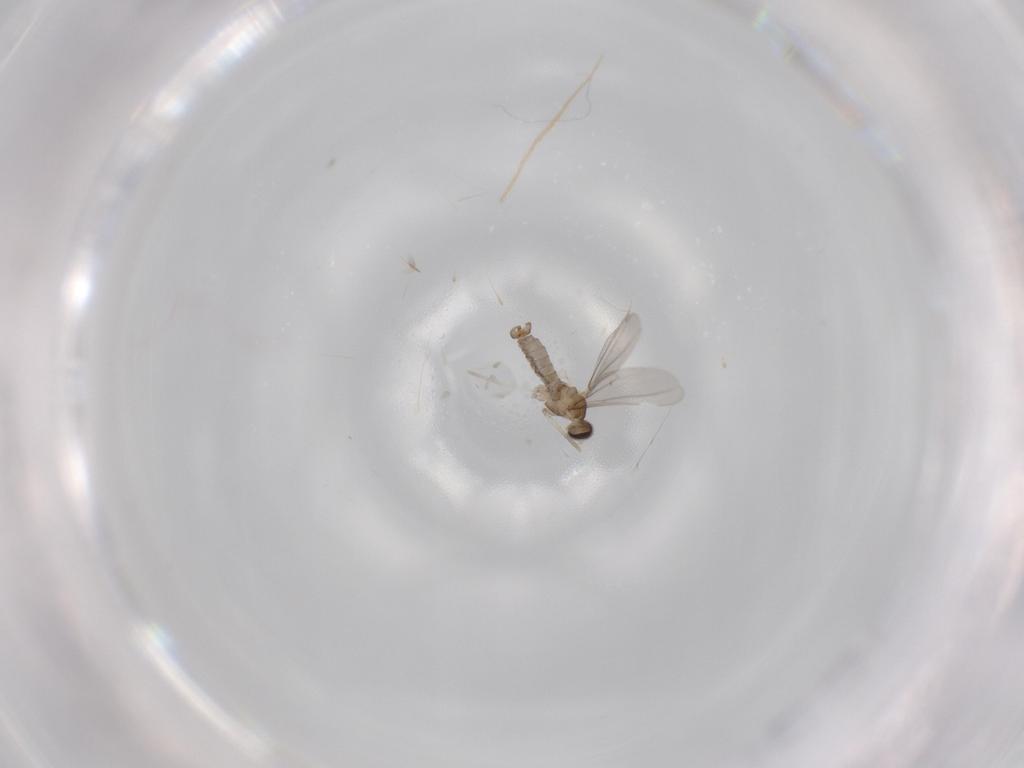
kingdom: Animalia
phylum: Arthropoda
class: Insecta
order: Diptera
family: Cecidomyiidae
